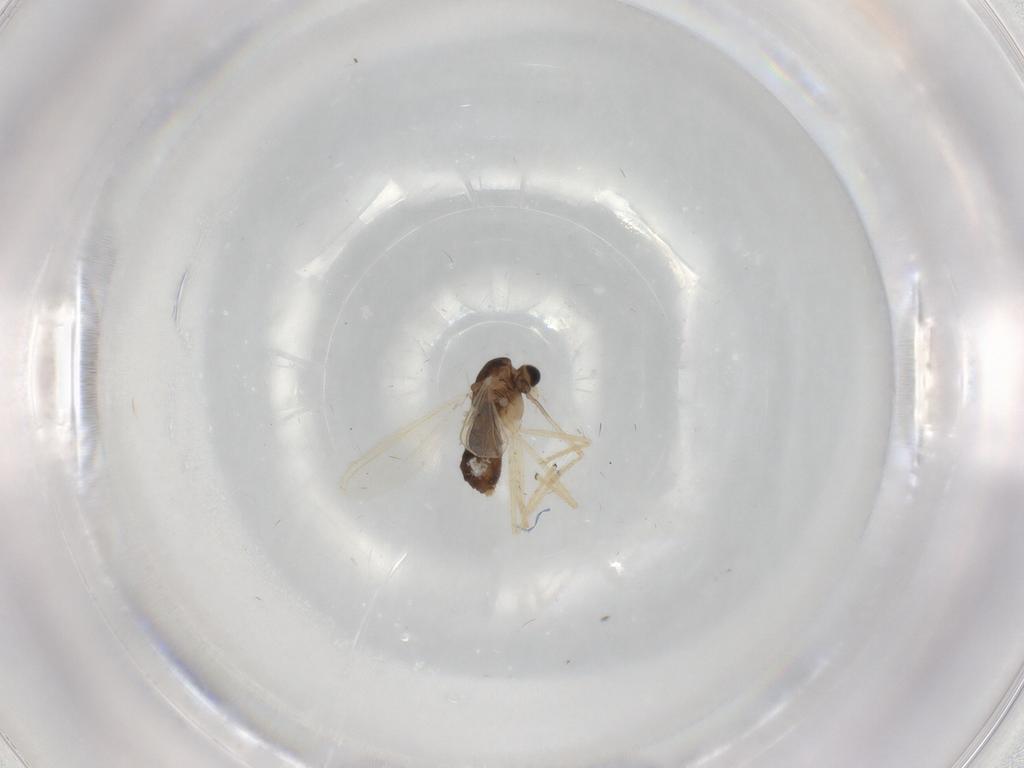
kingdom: Animalia
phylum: Arthropoda
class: Insecta
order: Diptera
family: Chironomidae
